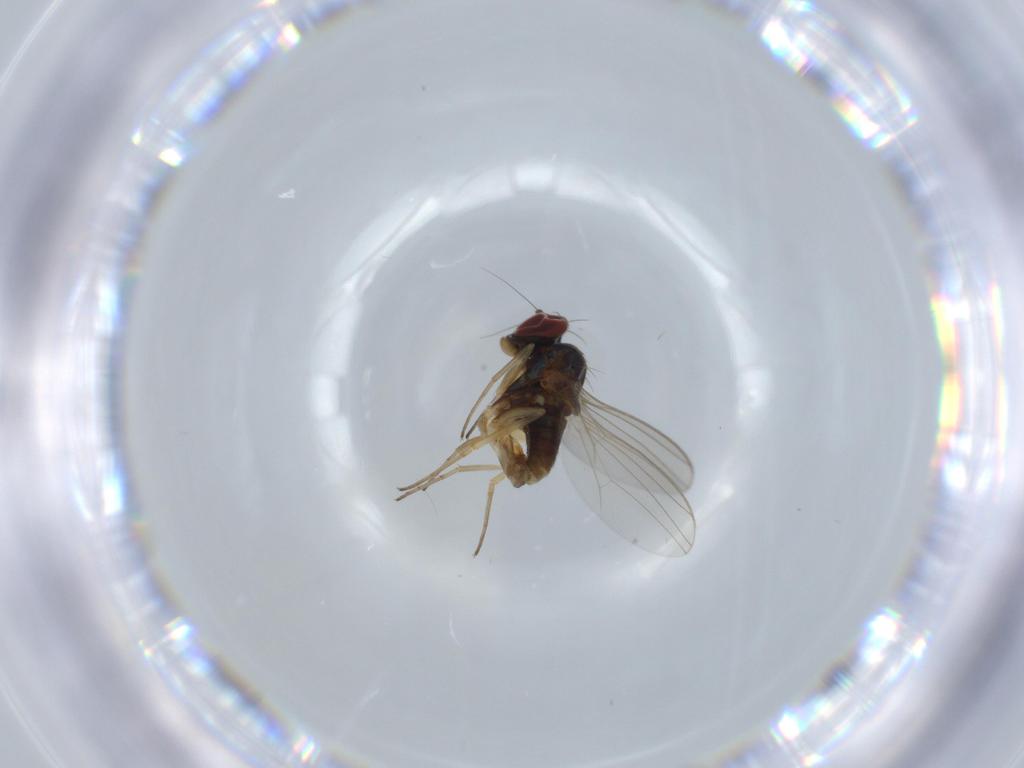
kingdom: Animalia
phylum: Arthropoda
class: Insecta
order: Diptera
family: Dolichopodidae
